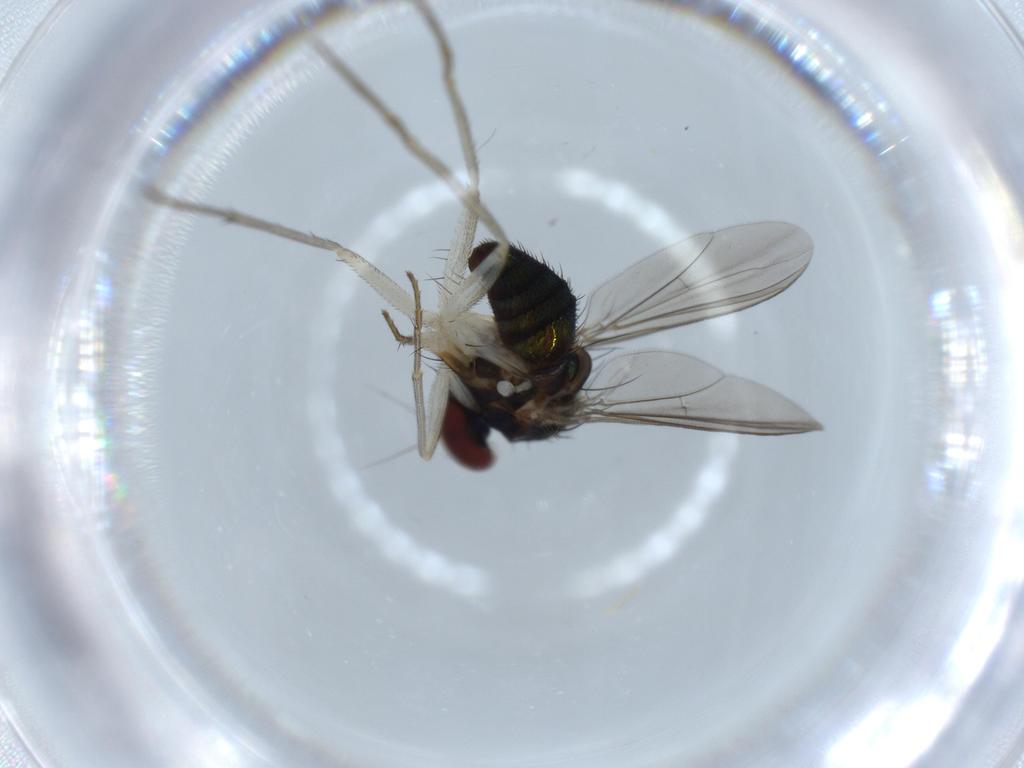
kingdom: Animalia
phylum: Arthropoda
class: Insecta
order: Diptera
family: Dolichopodidae
